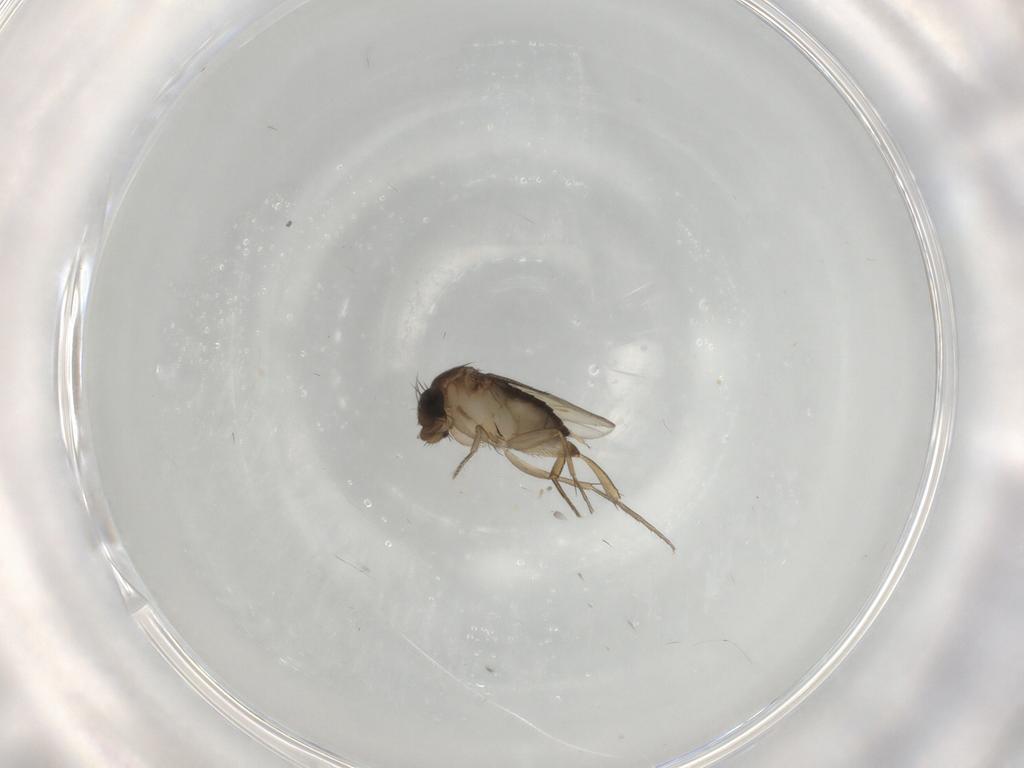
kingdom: Animalia
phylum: Arthropoda
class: Insecta
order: Diptera
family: Phoridae
